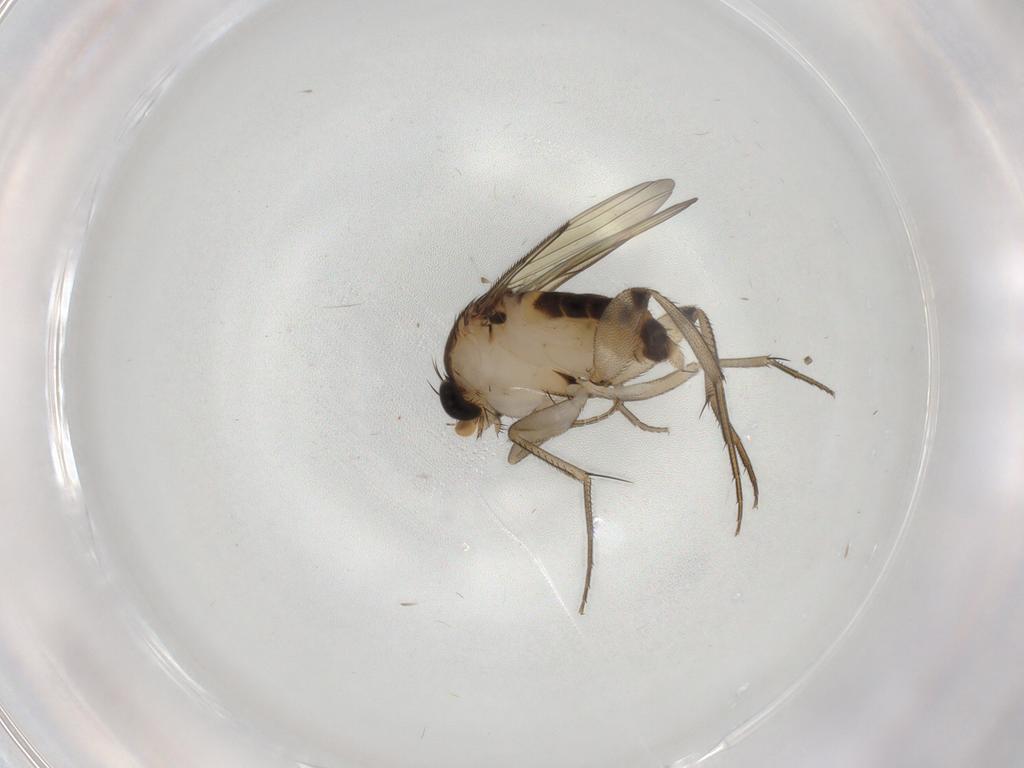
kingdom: Animalia
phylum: Arthropoda
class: Insecta
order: Diptera
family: Phoridae
